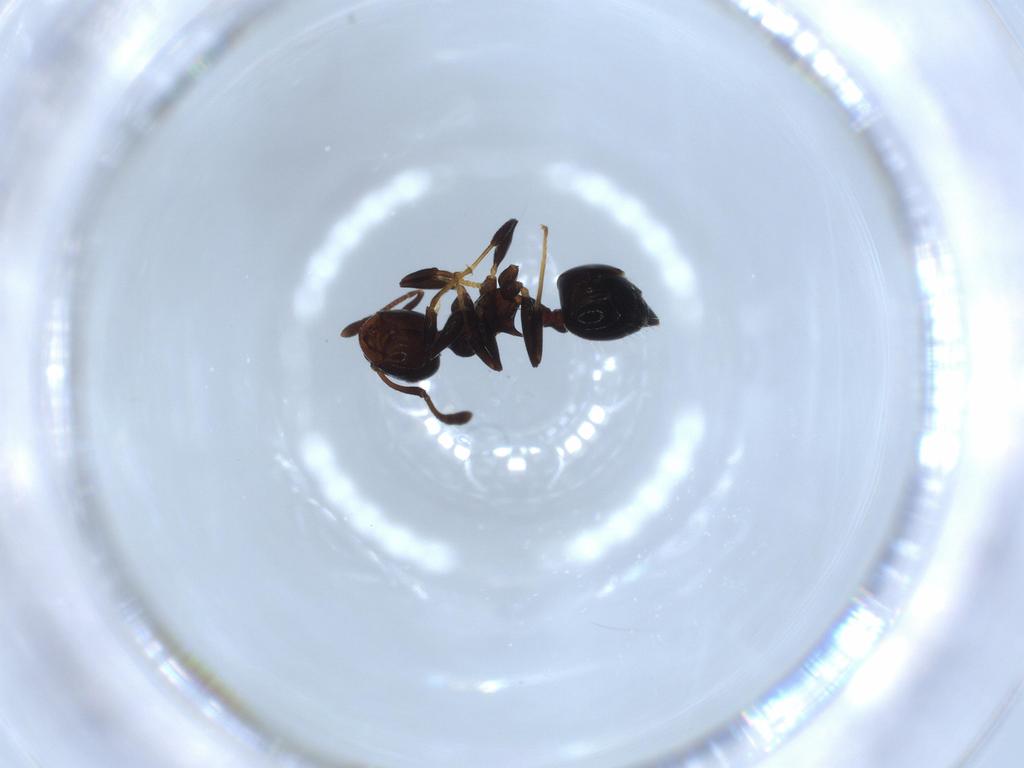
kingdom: Animalia
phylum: Arthropoda
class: Insecta
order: Hymenoptera
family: Formicidae
